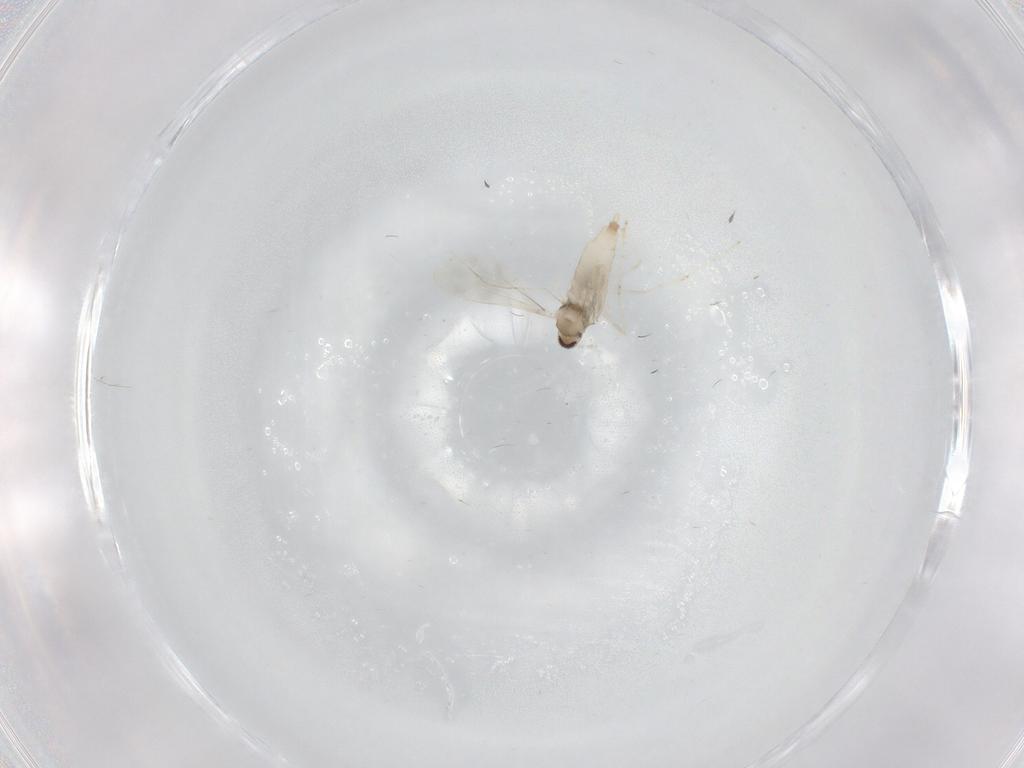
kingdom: Animalia
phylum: Arthropoda
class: Insecta
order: Diptera
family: Cecidomyiidae
